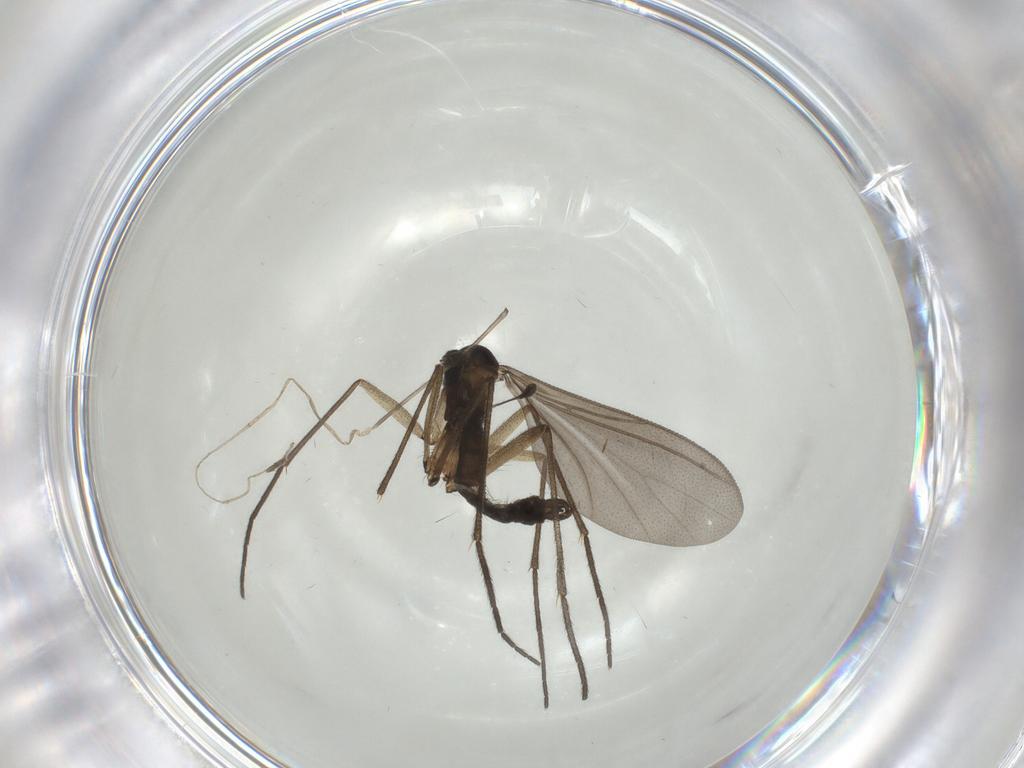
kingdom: Animalia
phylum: Arthropoda
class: Insecta
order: Diptera
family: Sciaridae
